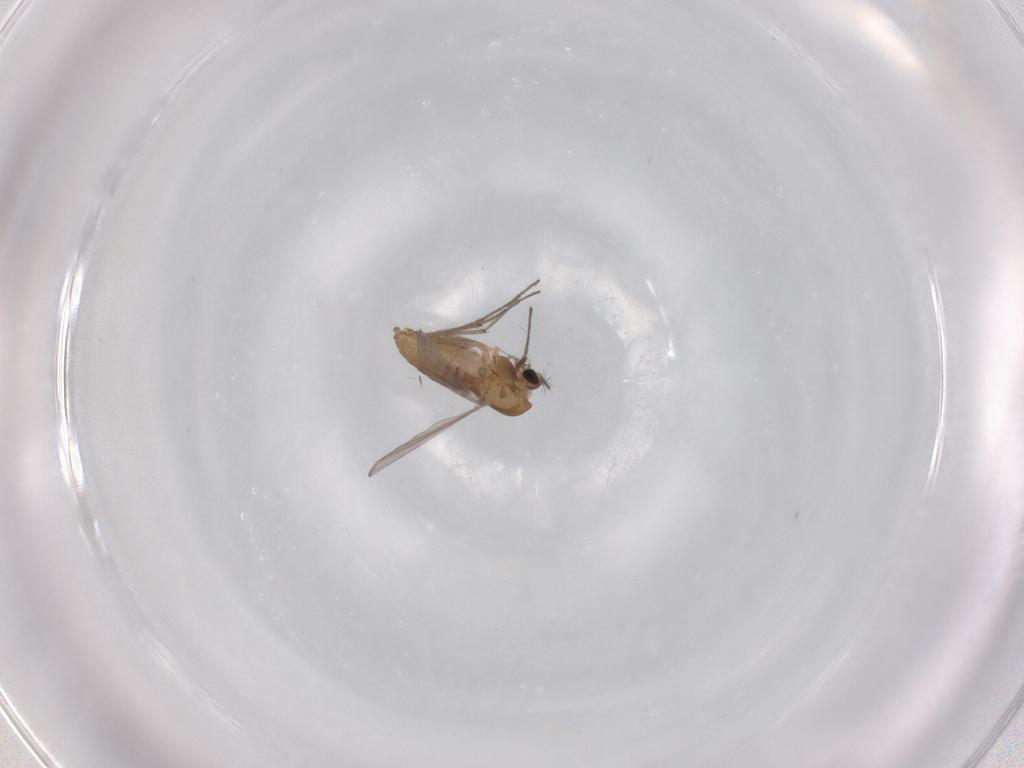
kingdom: Animalia
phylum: Arthropoda
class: Insecta
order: Diptera
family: Chironomidae
